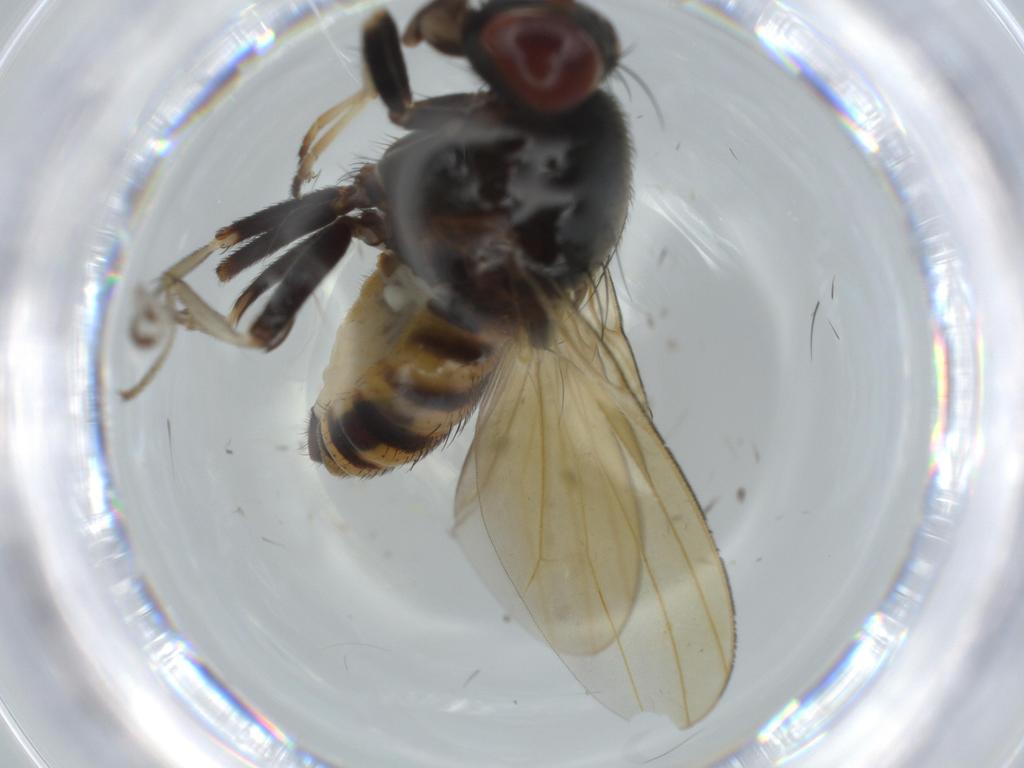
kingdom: Animalia
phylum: Arthropoda
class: Insecta
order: Diptera
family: Lauxaniidae
